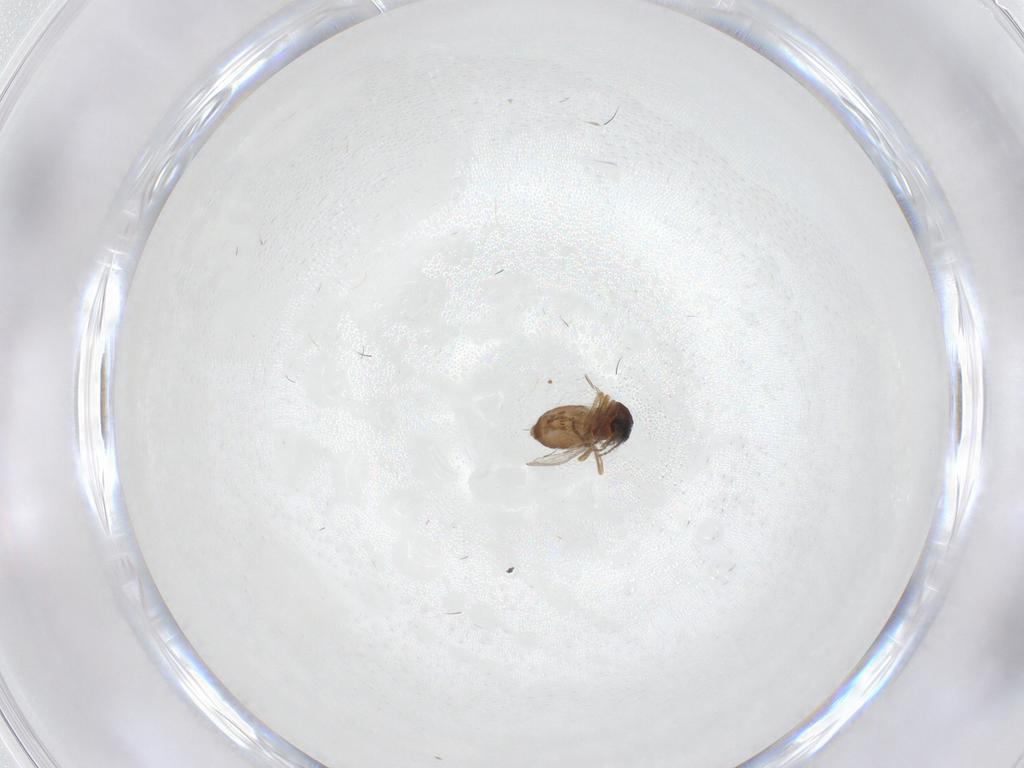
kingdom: Animalia
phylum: Arthropoda
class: Insecta
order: Diptera
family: Ceratopogonidae
